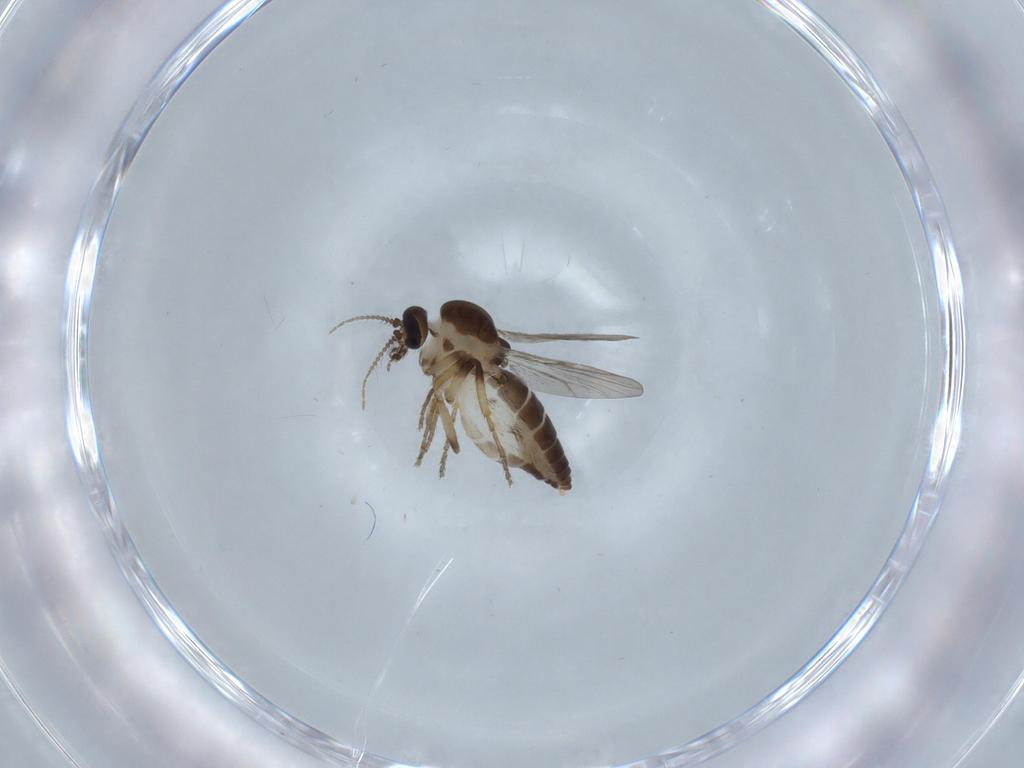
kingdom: Animalia
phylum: Arthropoda
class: Insecta
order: Diptera
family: Ceratopogonidae
